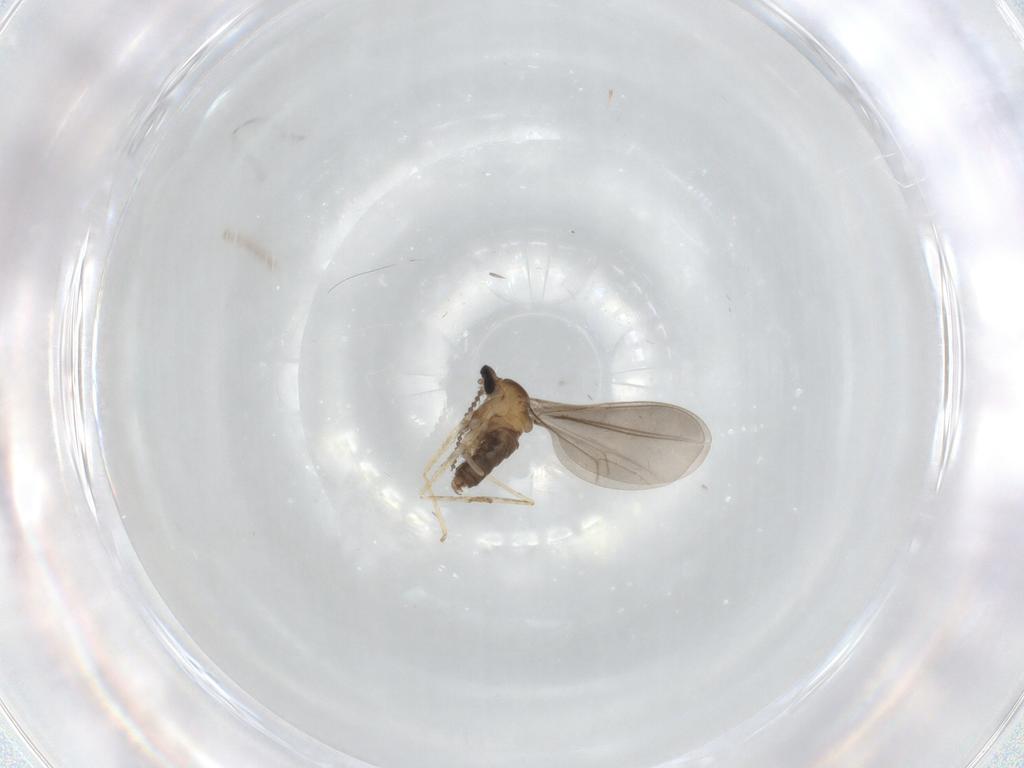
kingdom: Animalia
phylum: Arthropoda
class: Insecta
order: Diptera
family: Cecidomyiidae
